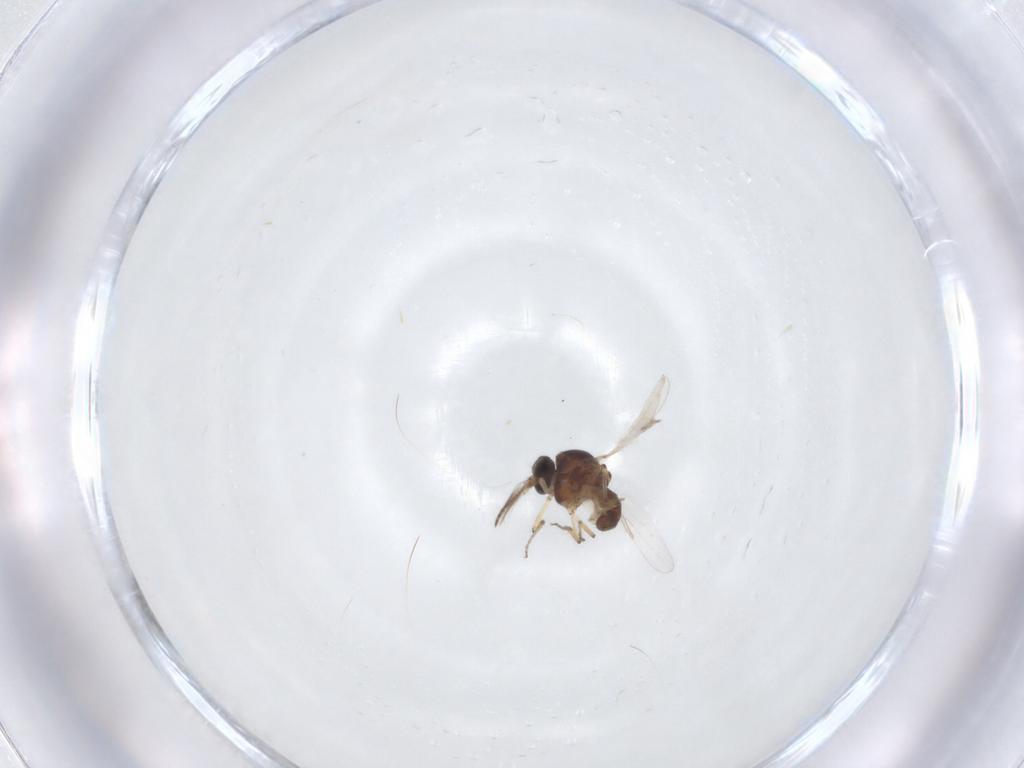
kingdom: Animalia
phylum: Arthropoda
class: Insecta
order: Diptera
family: Ceratopogonidae
